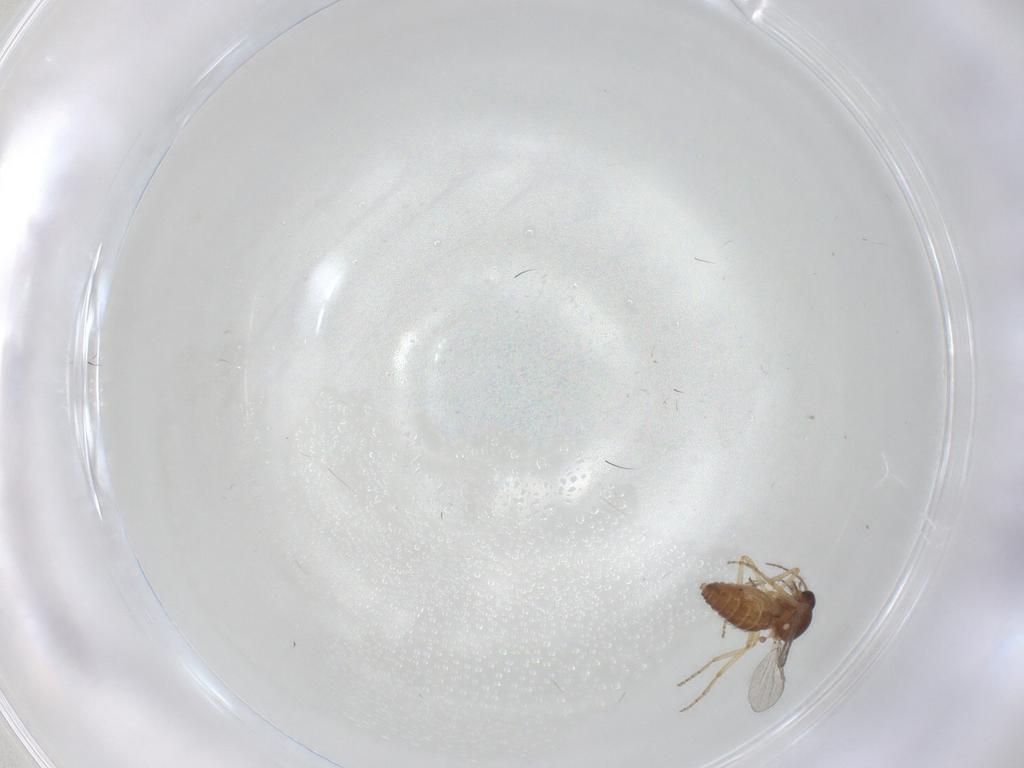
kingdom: Animalia
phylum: Arthropoda
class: Insecta
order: Diptera
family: Ceratopogonidae
